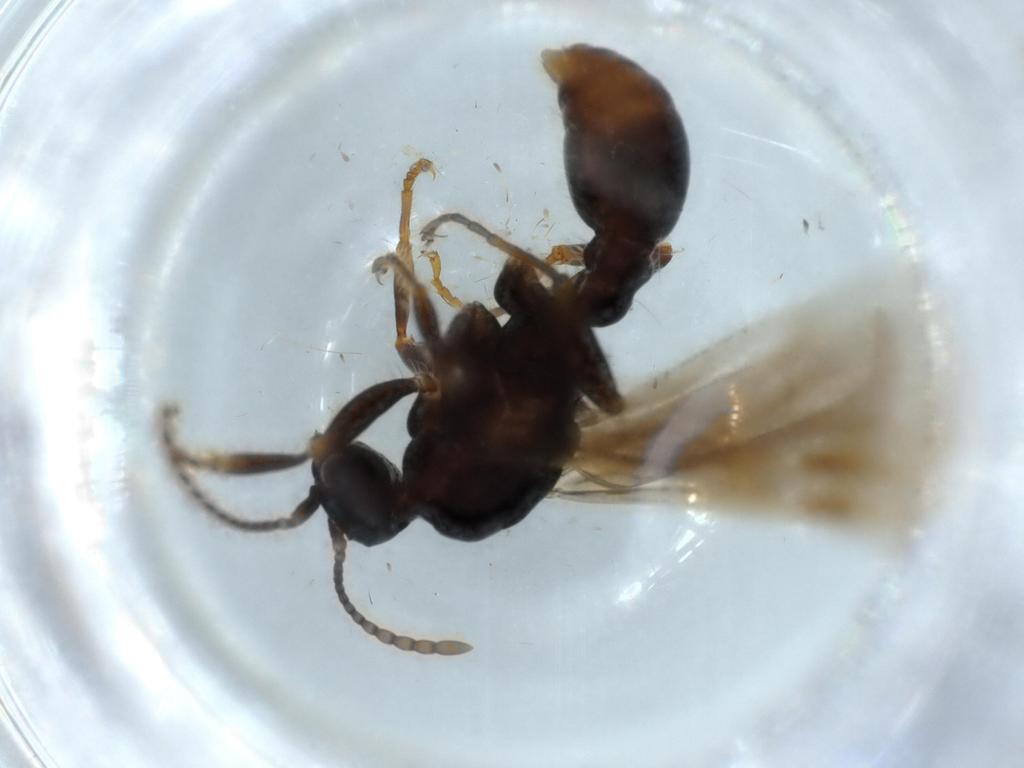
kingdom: Animalia
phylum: Arthropoda
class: Insecta
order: Hymenoptera
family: Formicidae
